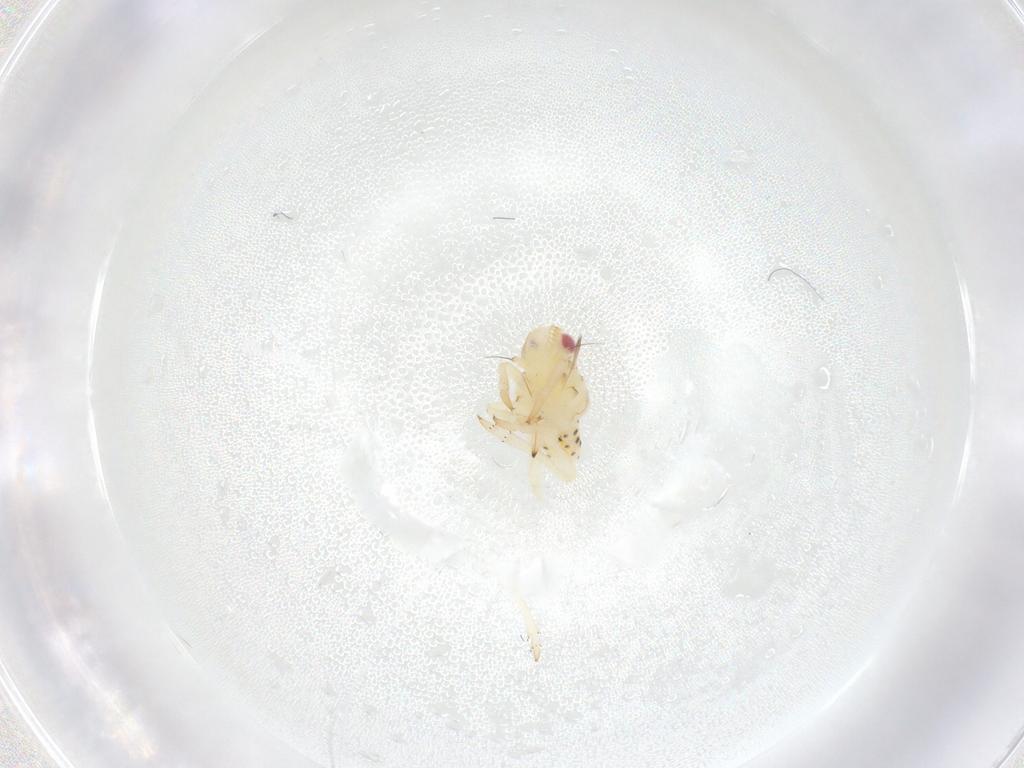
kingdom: Animalia
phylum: Arthropoda
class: Insecta
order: Hemiptera
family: Tropiduchidae
